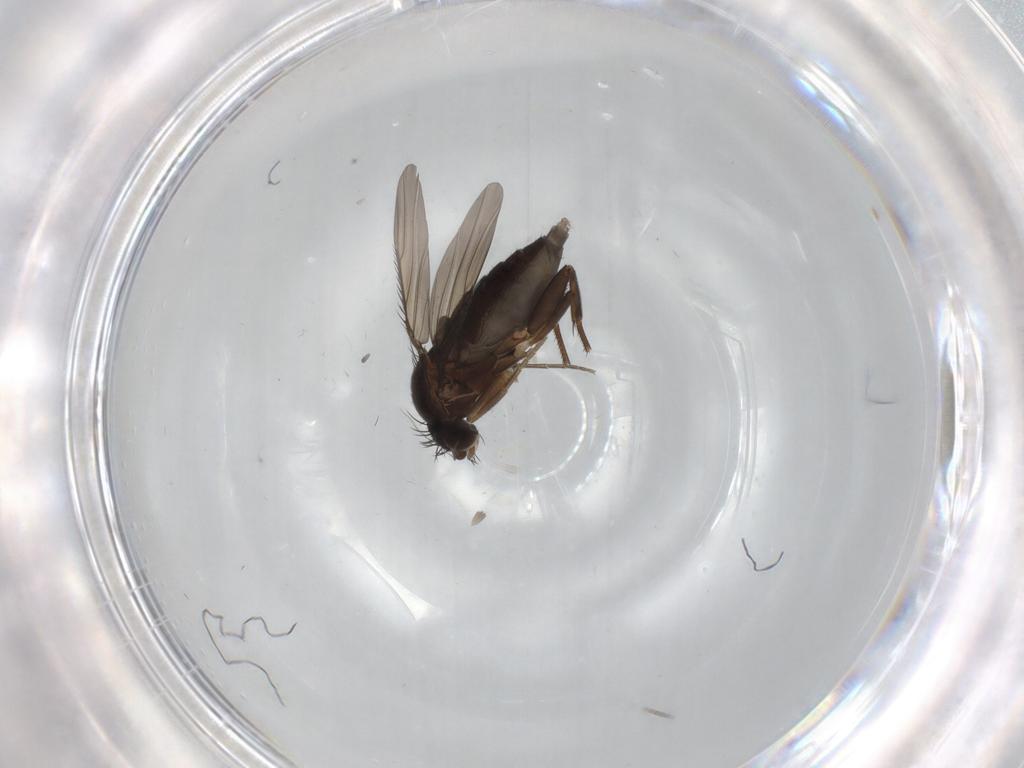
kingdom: Animalia
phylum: Arthropoda
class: Insecta
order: Diptera
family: Phoridae
